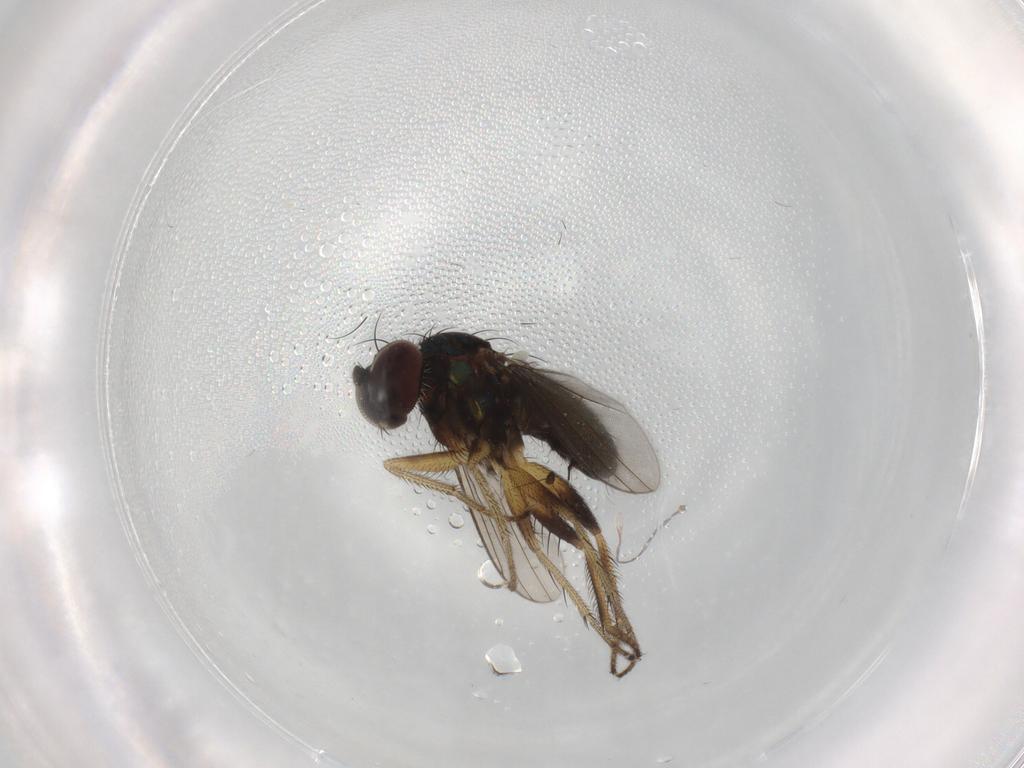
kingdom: Animalia
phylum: Arthropoda
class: Insecta
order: Diptera
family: Dolichopodidae
